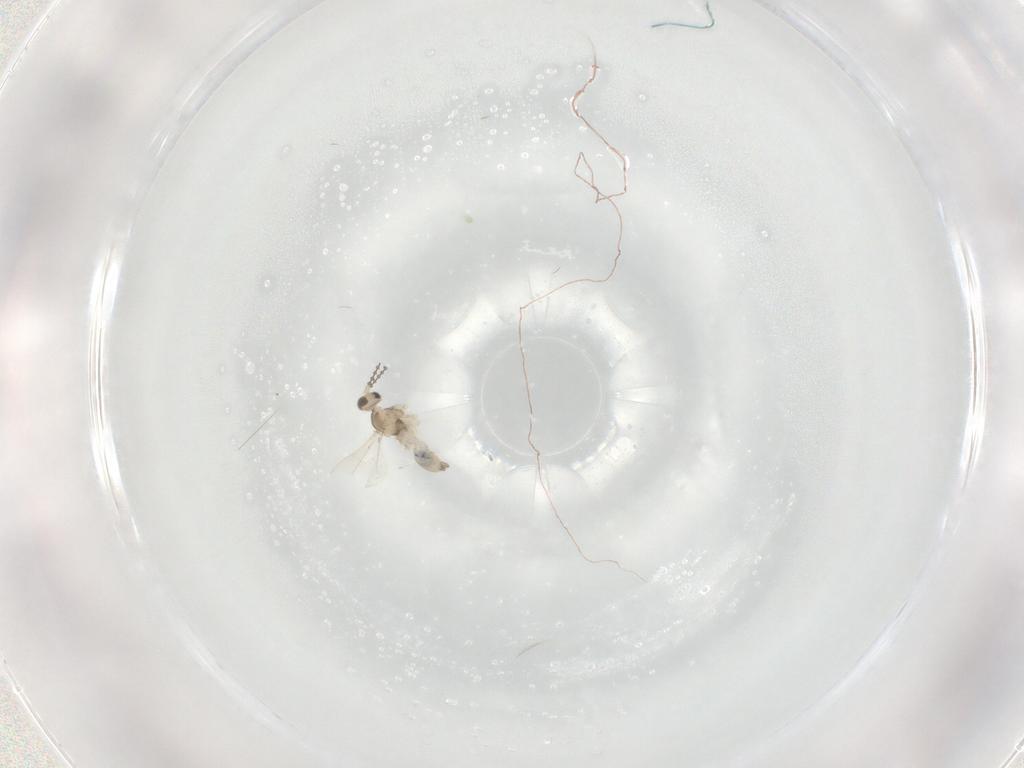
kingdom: Animalia
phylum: Arthropoda
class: Insecta
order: Diptera
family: Cecidomyiidae
